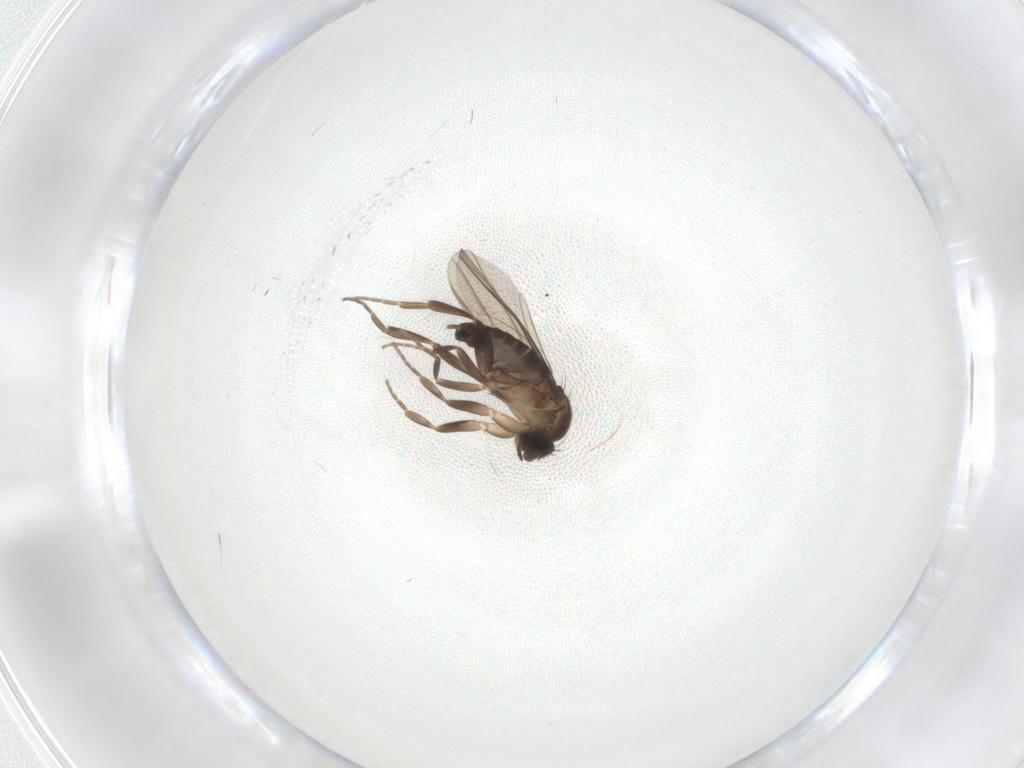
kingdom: Animalia
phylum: Arthropoda
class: Insecta
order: Diptera
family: Phoridae
